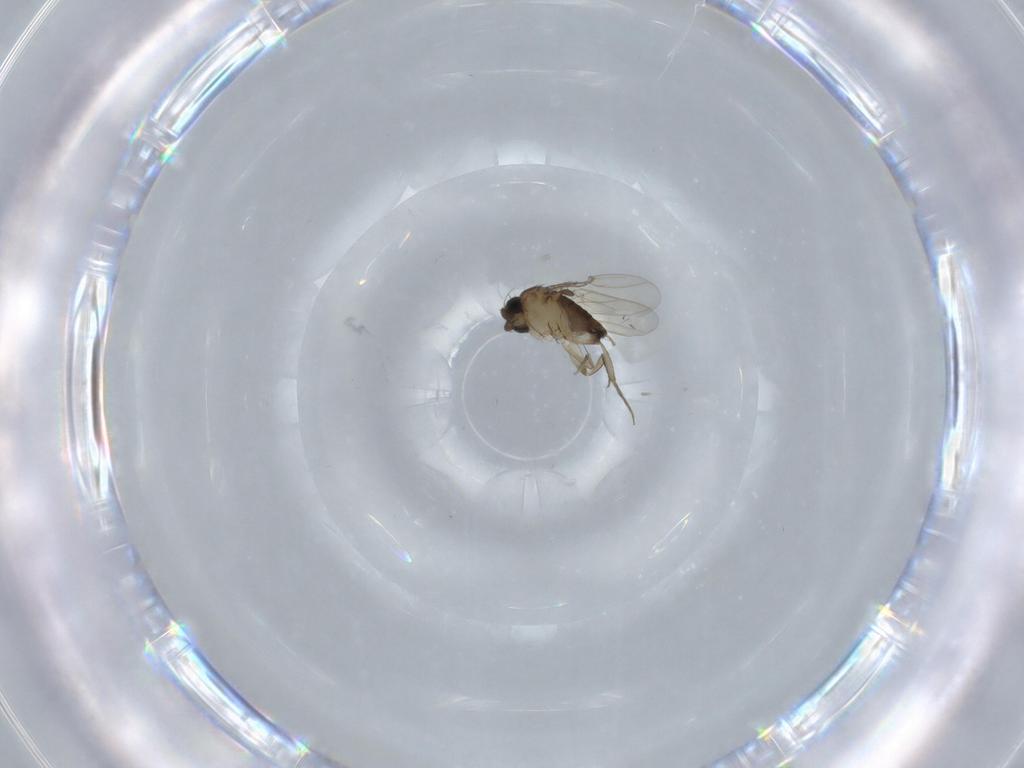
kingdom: Animalia
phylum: Arthropoda
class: Insecta
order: Diptera
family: Phoridae
